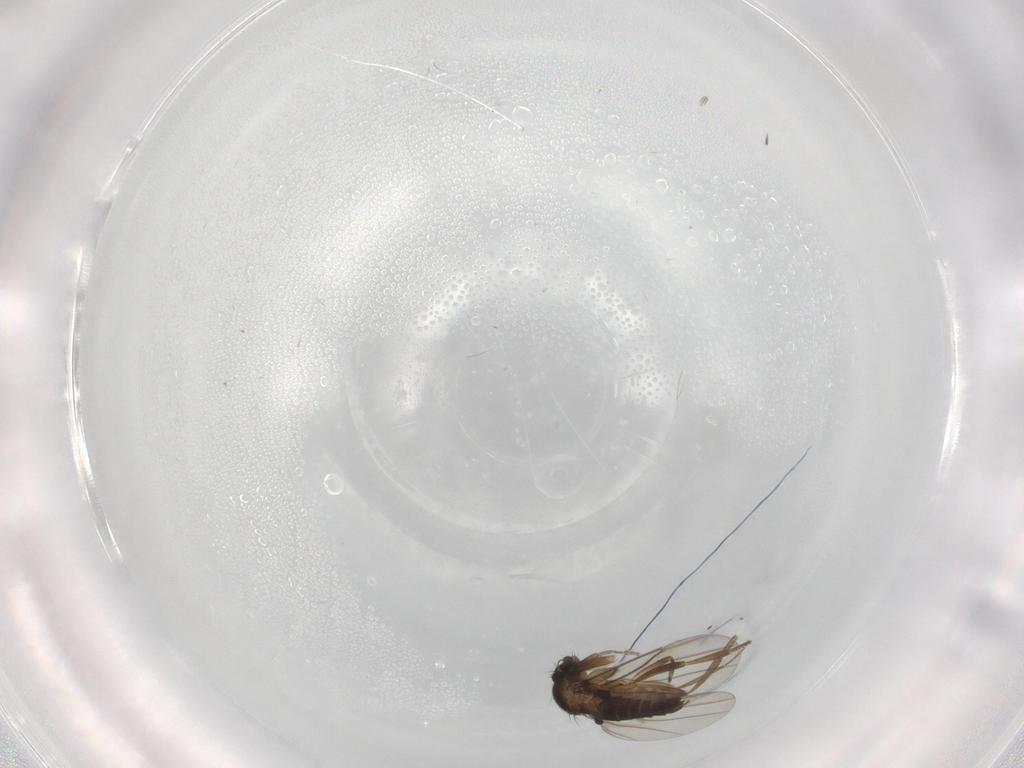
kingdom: Animalia
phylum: Arthropoda
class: Insecta
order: Diptera
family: Phoridae
